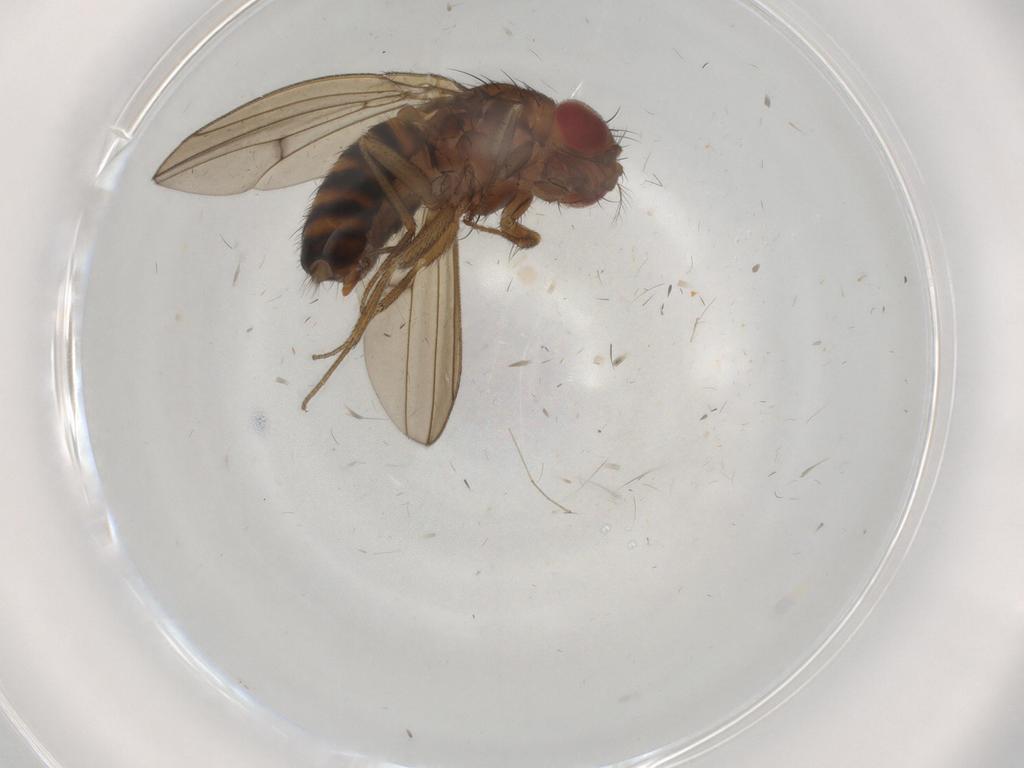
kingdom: Animalia
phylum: Arthropoda
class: Insecta
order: Diptera
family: Drosophilidae
